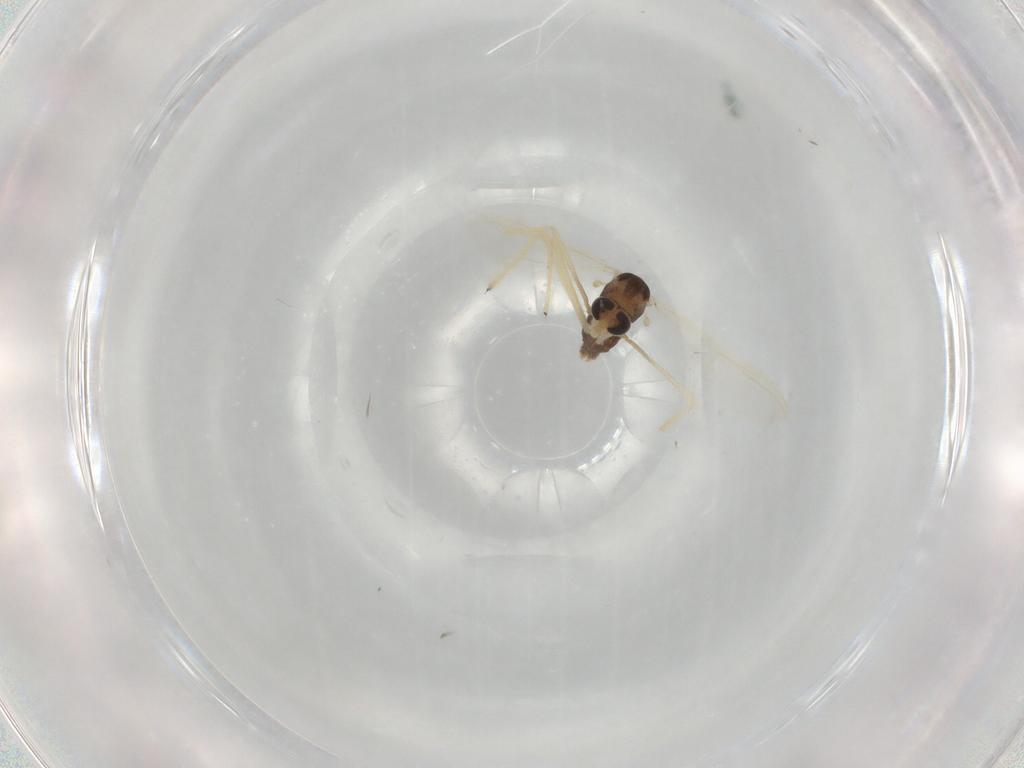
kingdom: Animalia
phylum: Arthropoda
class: Insecta
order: Diptera
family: Chironomidae
